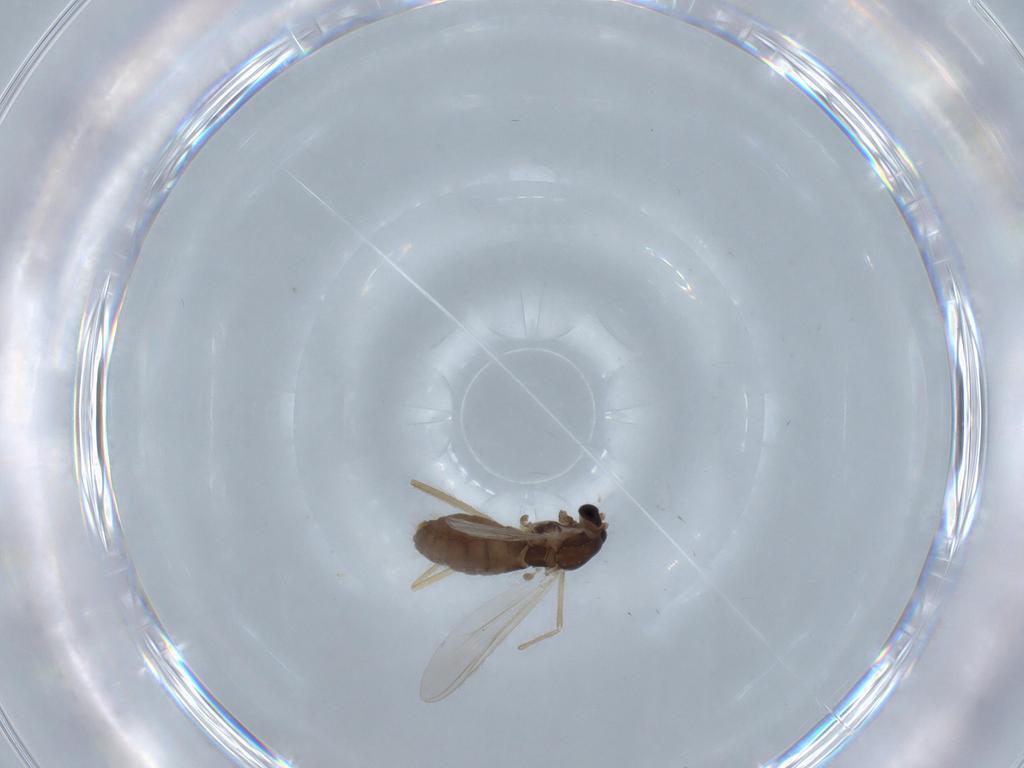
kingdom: Animalia
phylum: Arthropoda
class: Insecta
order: Diptera
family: Chironomidae
